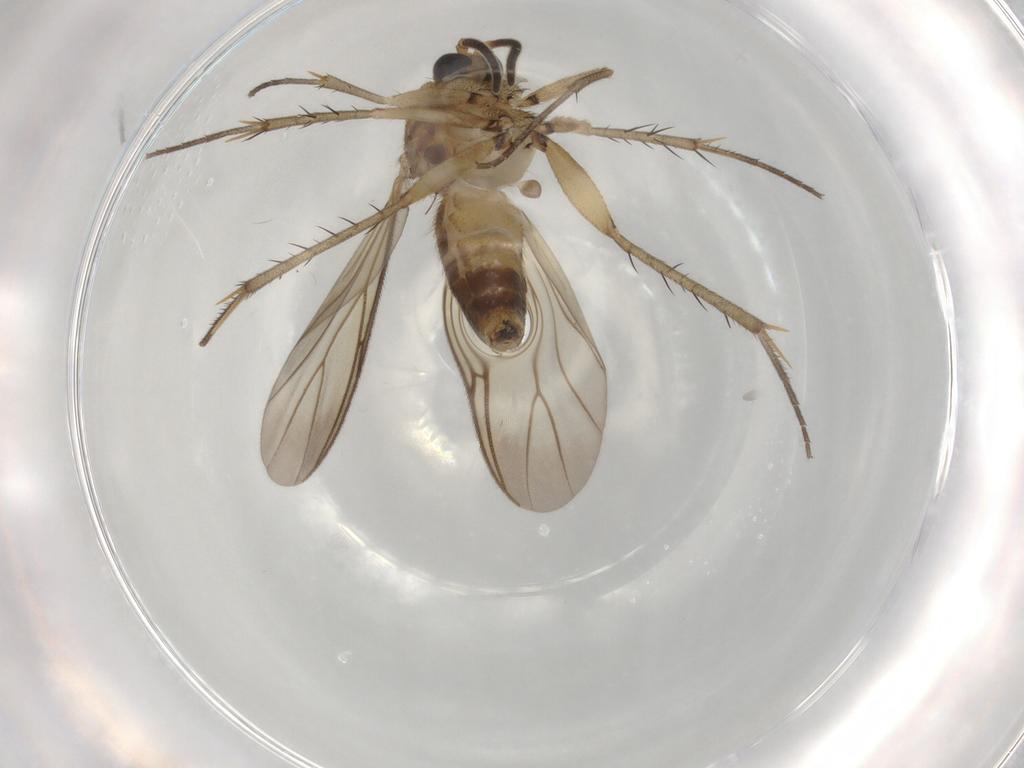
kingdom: Animalia
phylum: Arthropoda
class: Insecta
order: Diptera
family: Mycetophilidae
